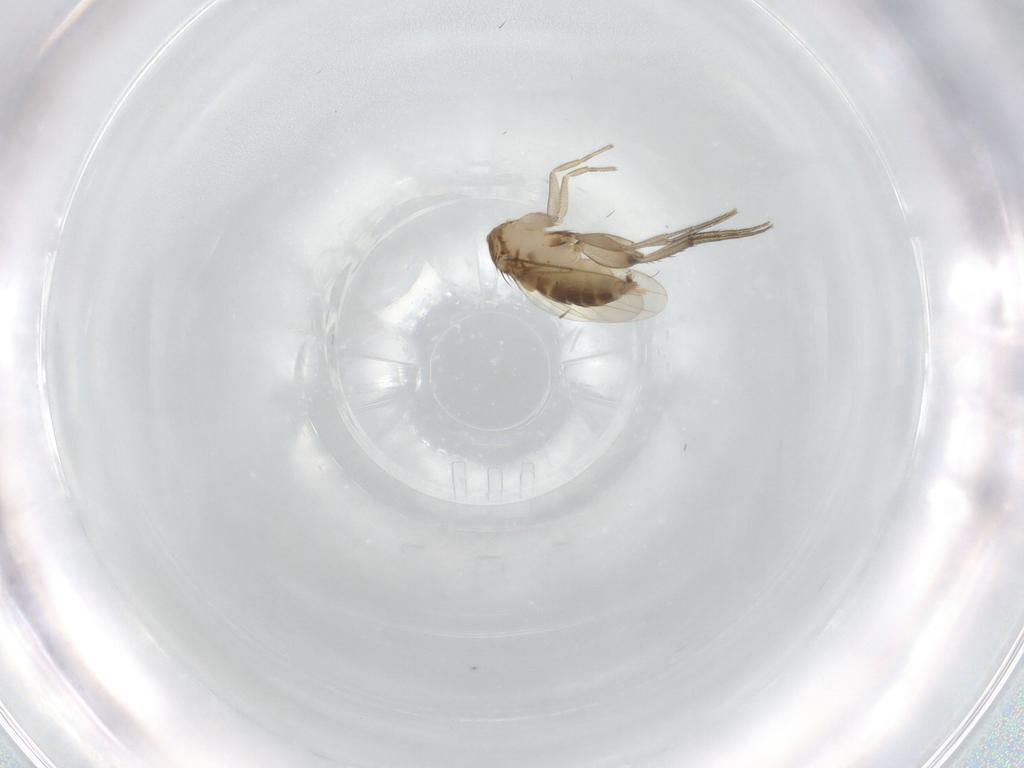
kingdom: Animalia
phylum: Arthropoda
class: Insecta
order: Diptera
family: Phoridae
